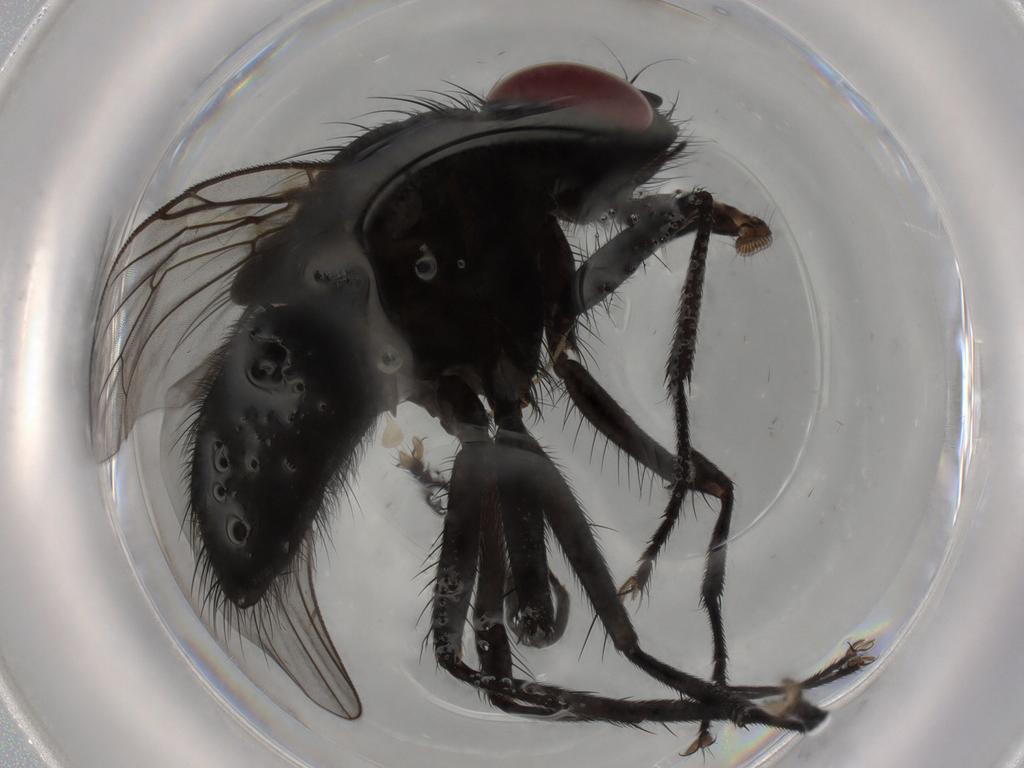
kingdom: Animalia
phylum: Arthropoda
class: Insecta
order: Diptera
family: Muscidae
